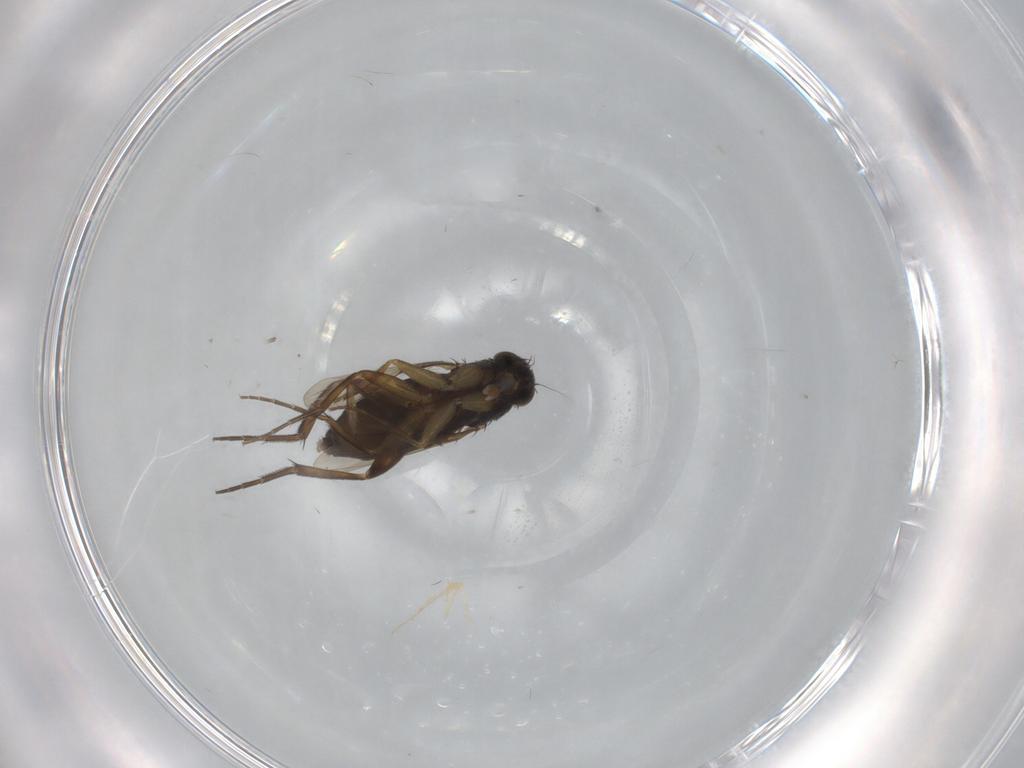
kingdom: Animalia
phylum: Arthropoda
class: Insecta
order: Diptera
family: Phoridae
